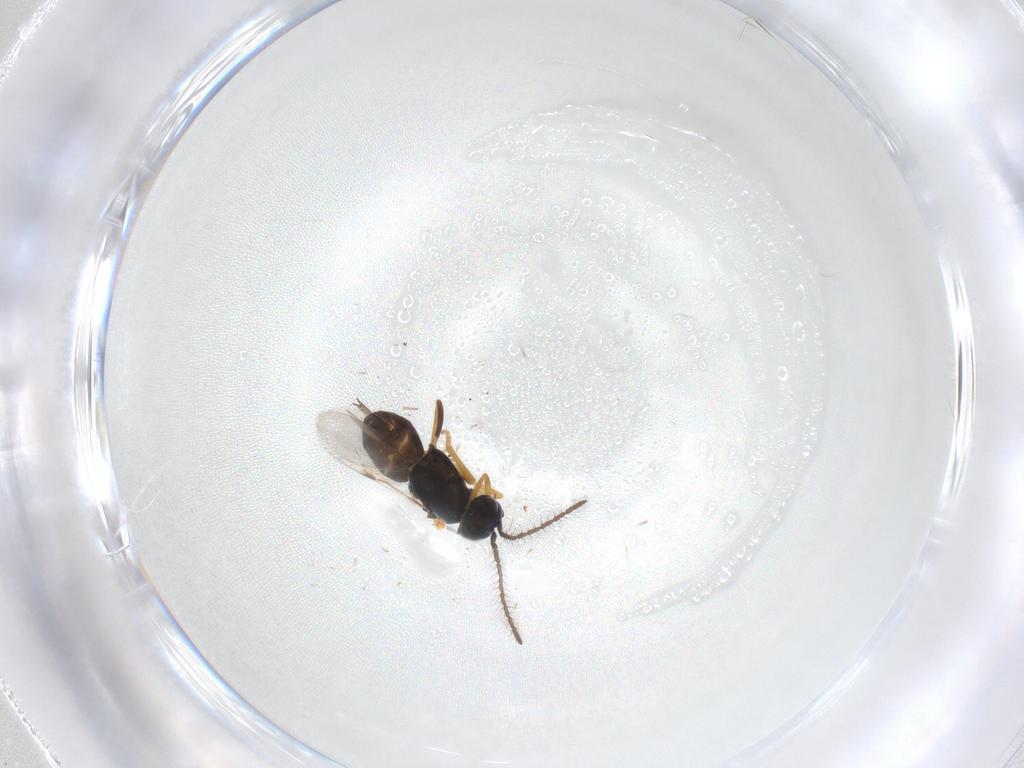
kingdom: Animalia
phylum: Arthropoda
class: Insecta
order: Hymenoptera
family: Encyrtidae
